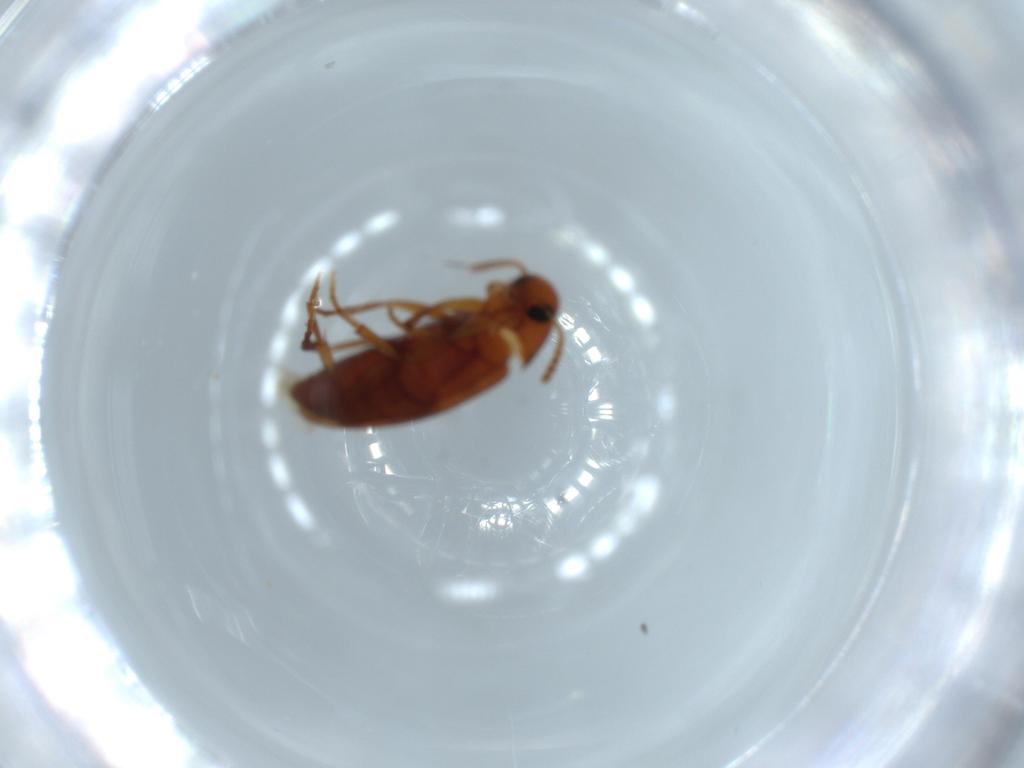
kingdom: Animalia
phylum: Arthropoda
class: Insecta
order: Coleoptera
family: Scraptiidae
